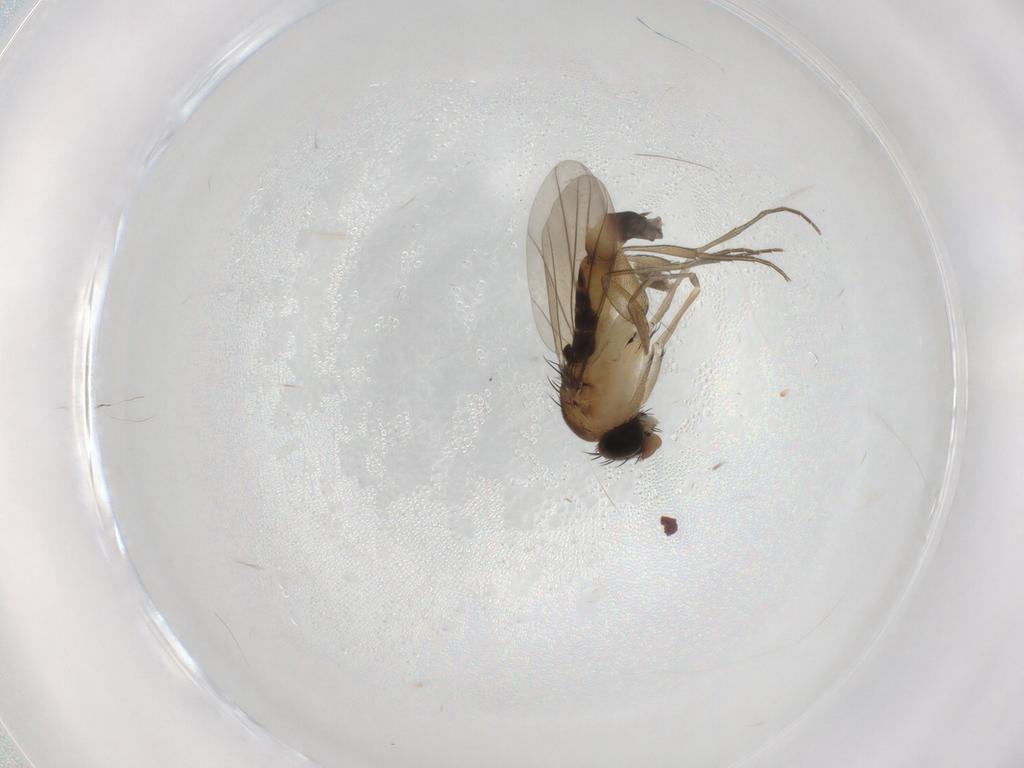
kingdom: Animalia
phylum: Arthropoda
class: Insecta
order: Diptera
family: Phoridae
